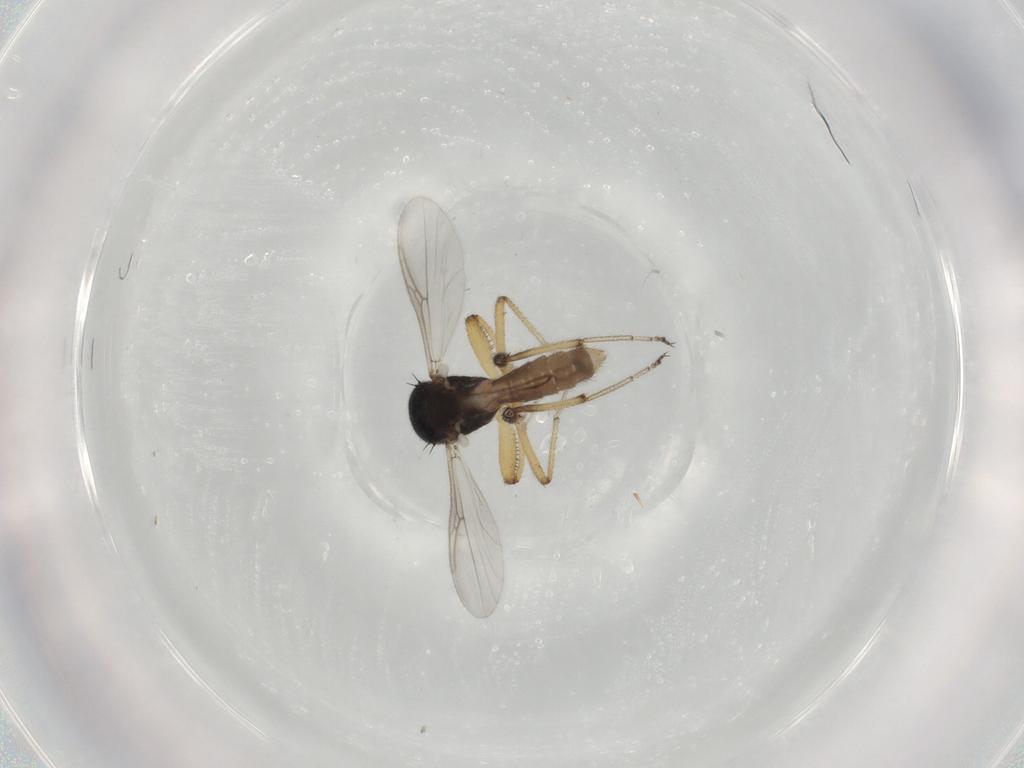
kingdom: Animalia
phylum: Arthropoda
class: Insecta
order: Diptera
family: Ceratopogonidae
